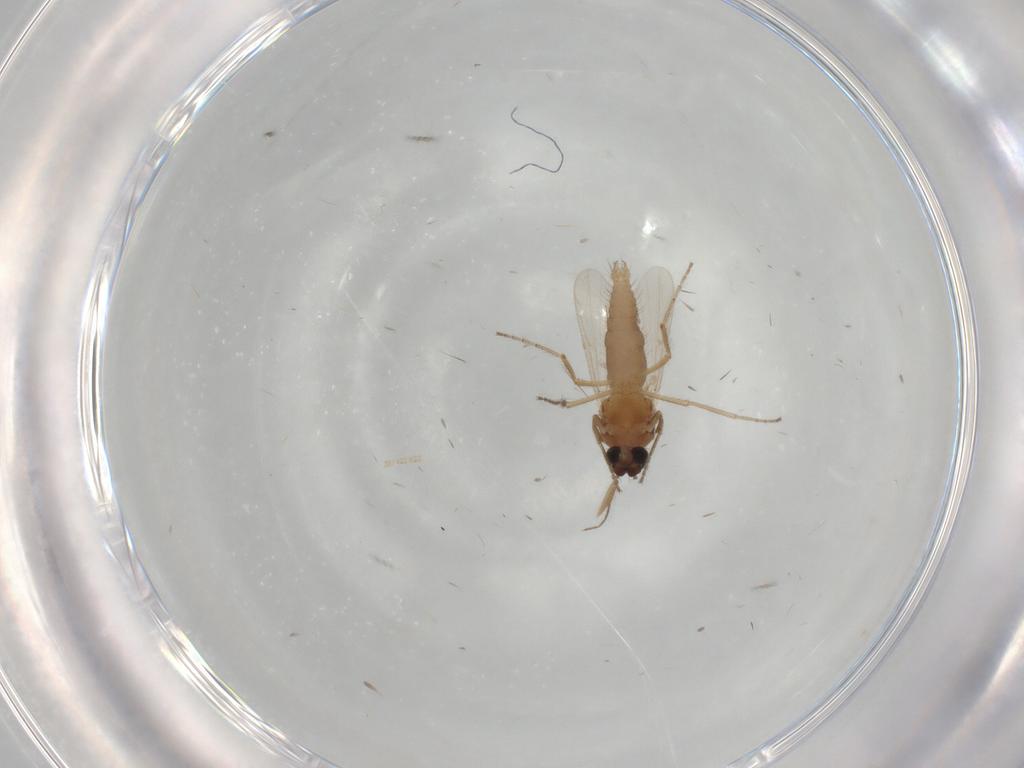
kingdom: Animalia
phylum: Arthropoda
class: Insecta
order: Diptera
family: Ceratopogonidae
